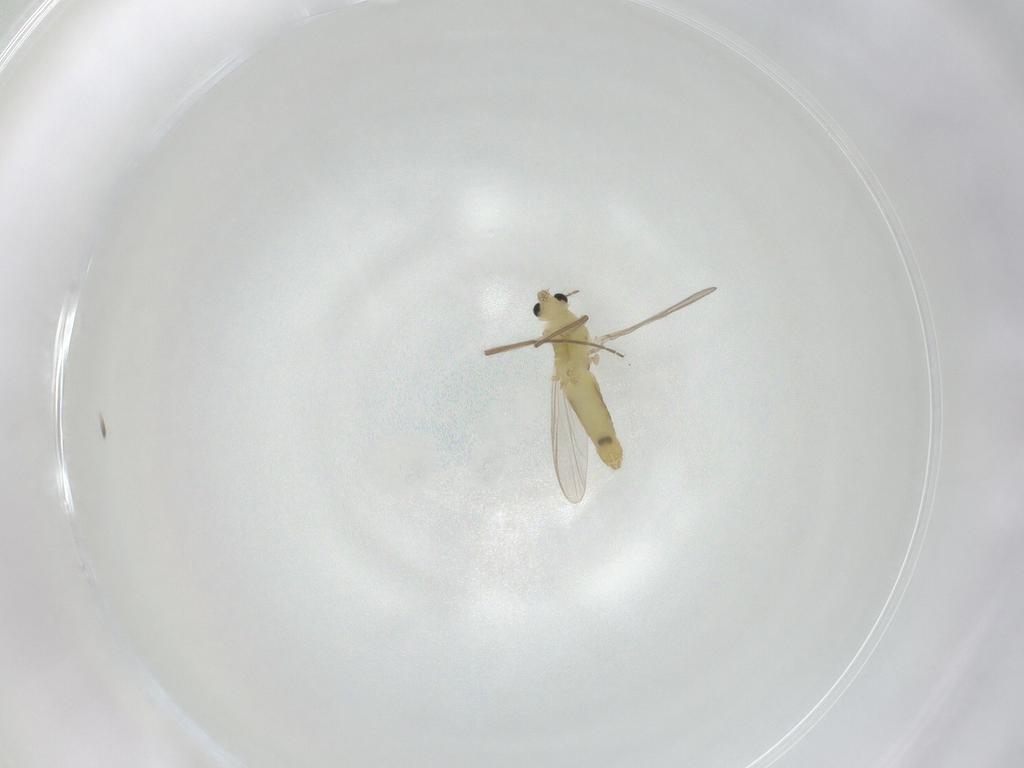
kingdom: Animalia
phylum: Arthropoda
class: Insecta
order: Diptera
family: Chironomidae
